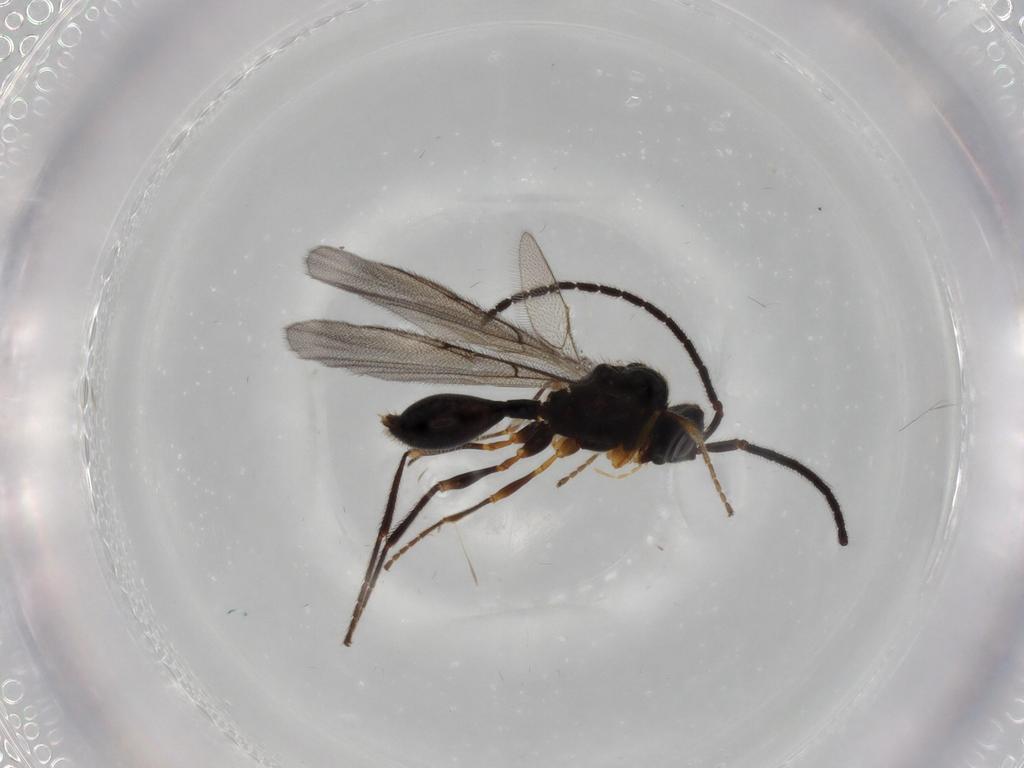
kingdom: Animalia
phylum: Arthropoda
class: Insecta
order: Hymenoptera
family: Diapriidae
